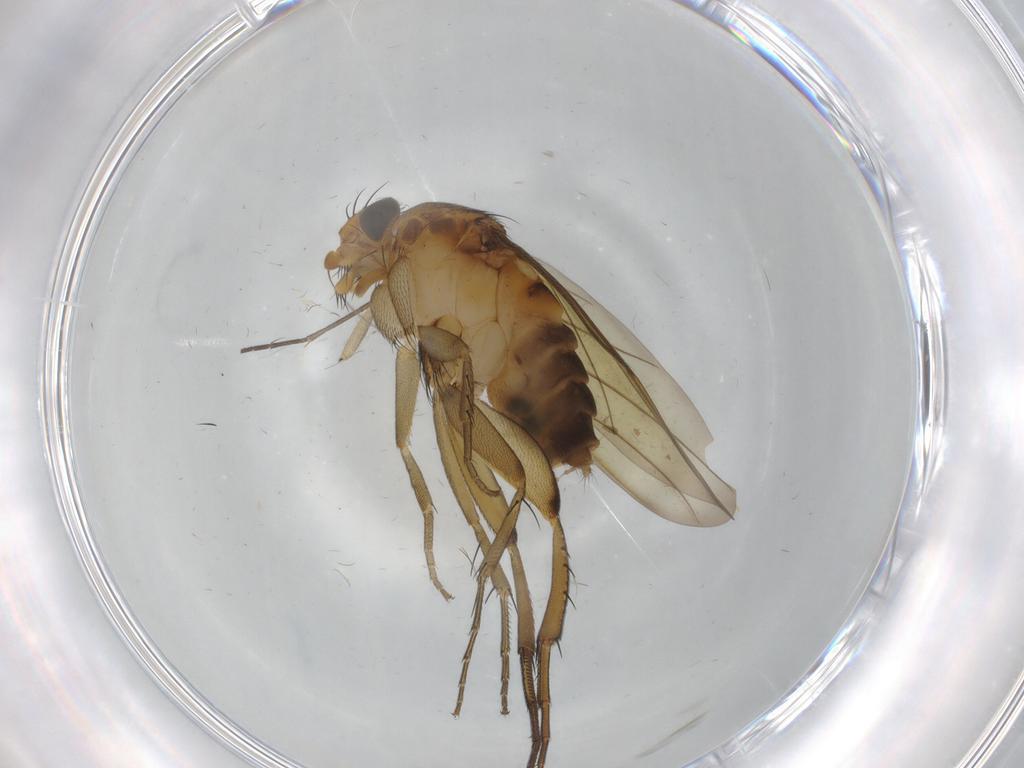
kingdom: Animalia
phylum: Arthropoda
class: Insecta
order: Diptera
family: Phoridae
